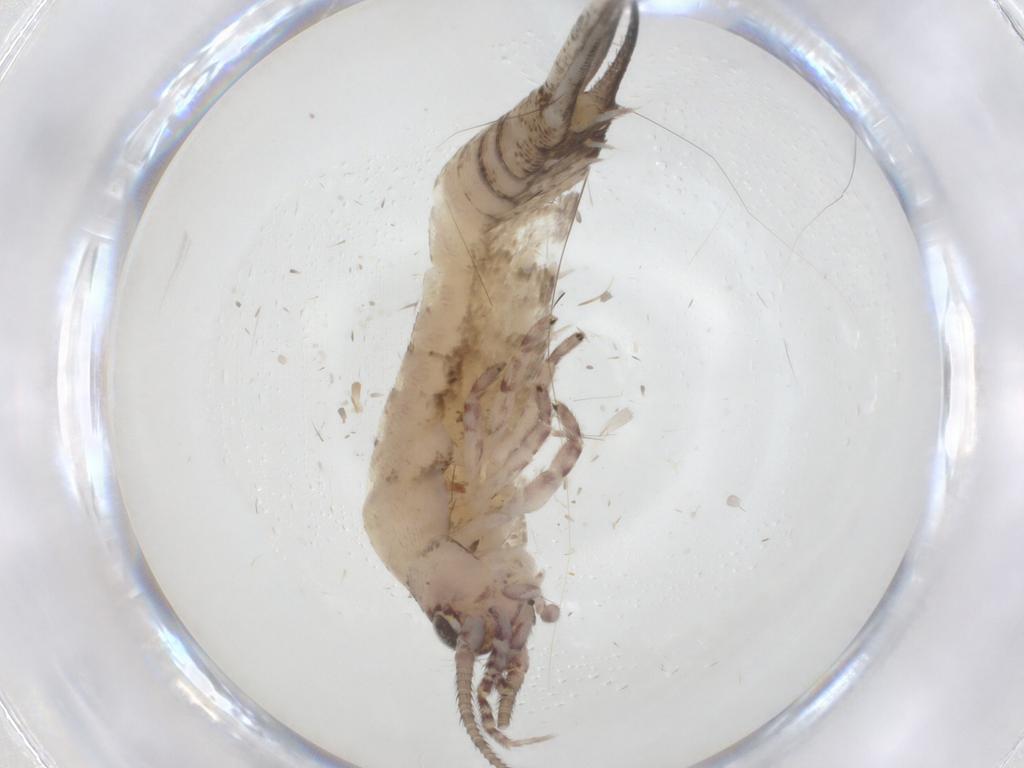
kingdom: Animalia
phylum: Arthropoda
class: Insecta
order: Archaeognatha
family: Machilidae
